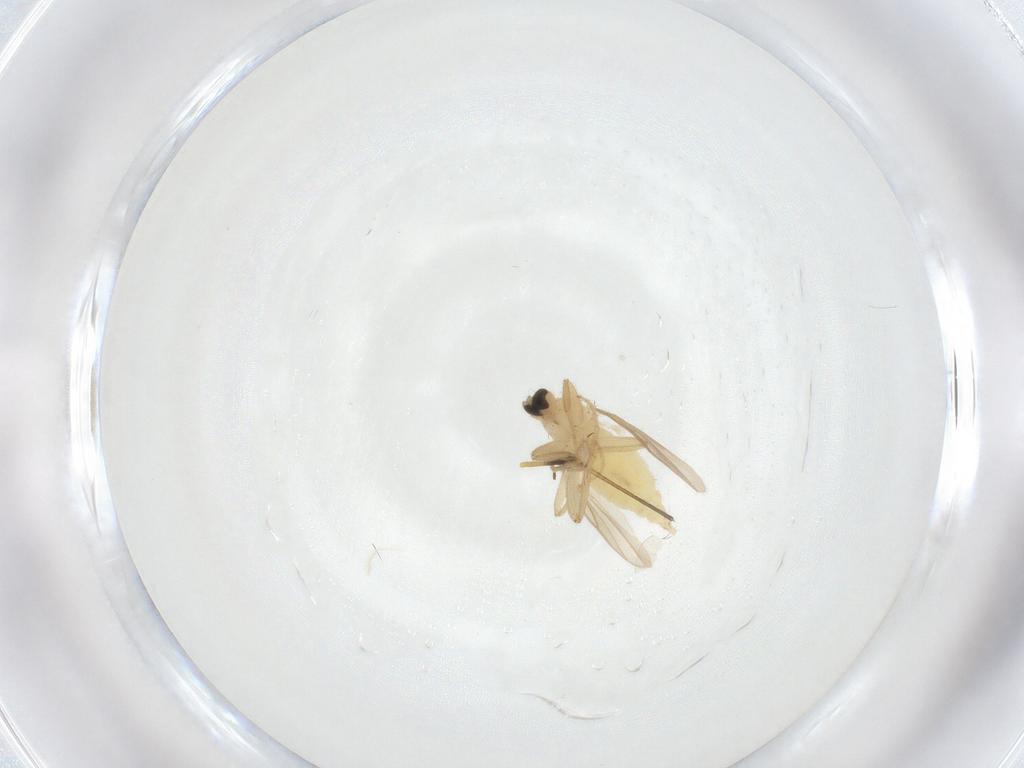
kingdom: Animalia
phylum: Arthropoda
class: Insecta
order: Diptera
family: Hybotidae
